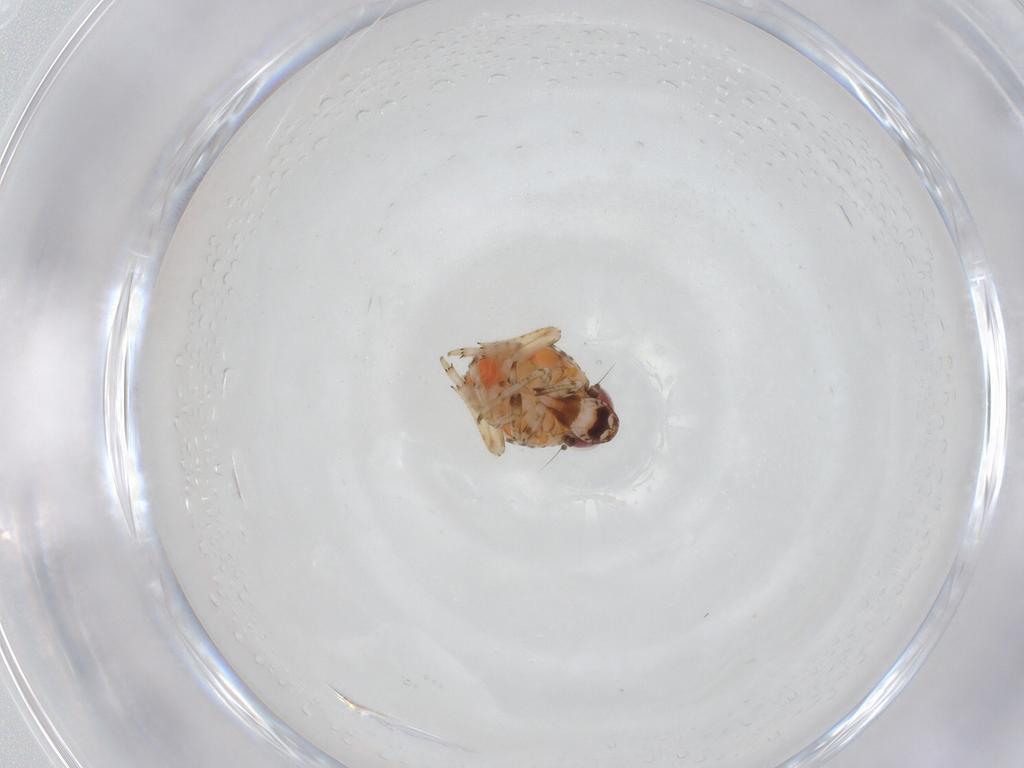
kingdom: Animalia
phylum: Arthropoda
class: Insecta
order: Hemiptera
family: Issidae
